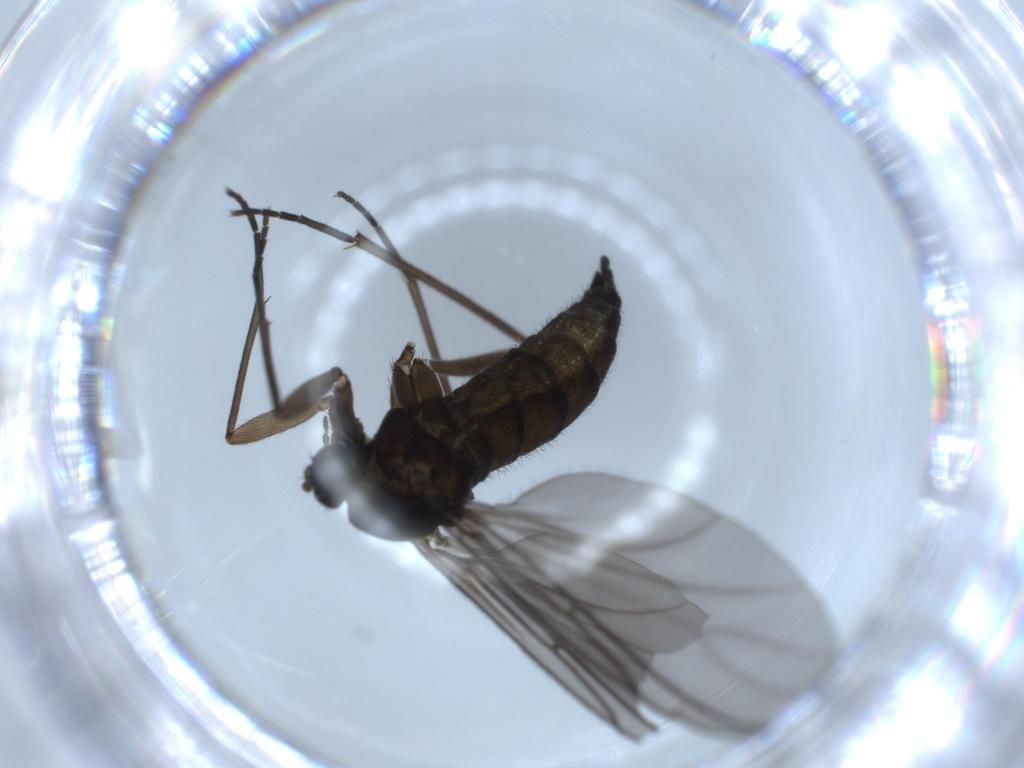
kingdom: Animalia
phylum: Arthropoda
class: Insecta
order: Diptera
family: Sciaridae
